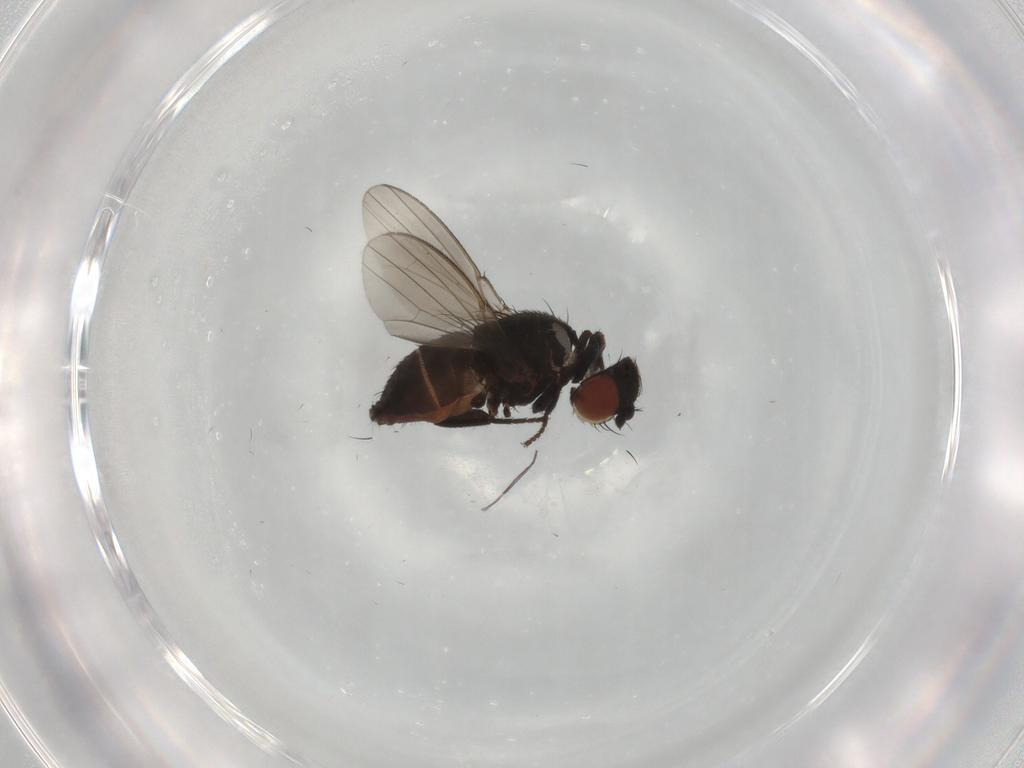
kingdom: Animalia
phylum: Arthropoda
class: Insecta
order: Diptera
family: Milichiidae
